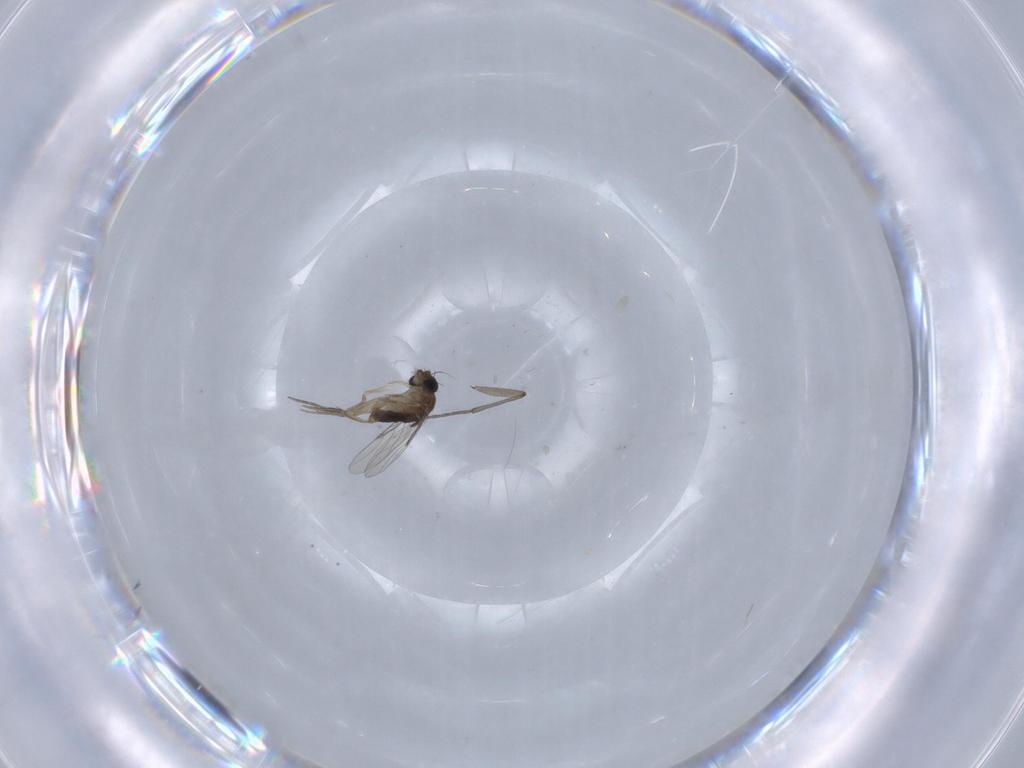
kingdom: Animalia
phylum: Arthropoda
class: Insecta
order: Diptera
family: Phoridae
